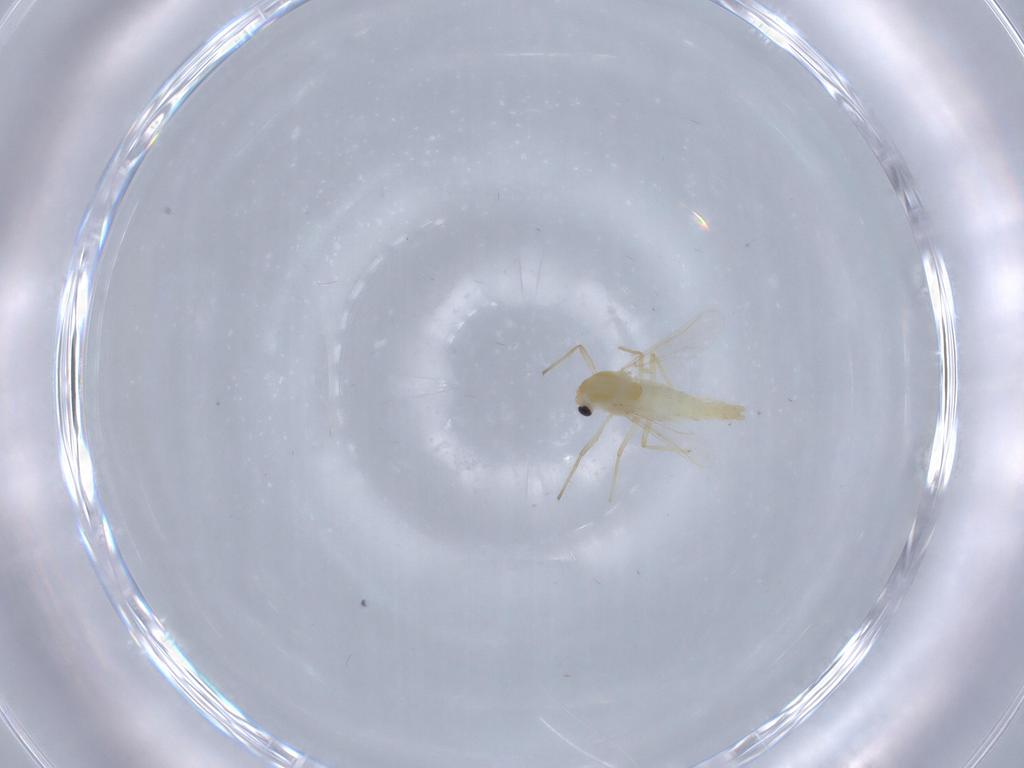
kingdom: Animalia
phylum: Arthropoda
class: Insecta
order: Diptera
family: Chironomidae
